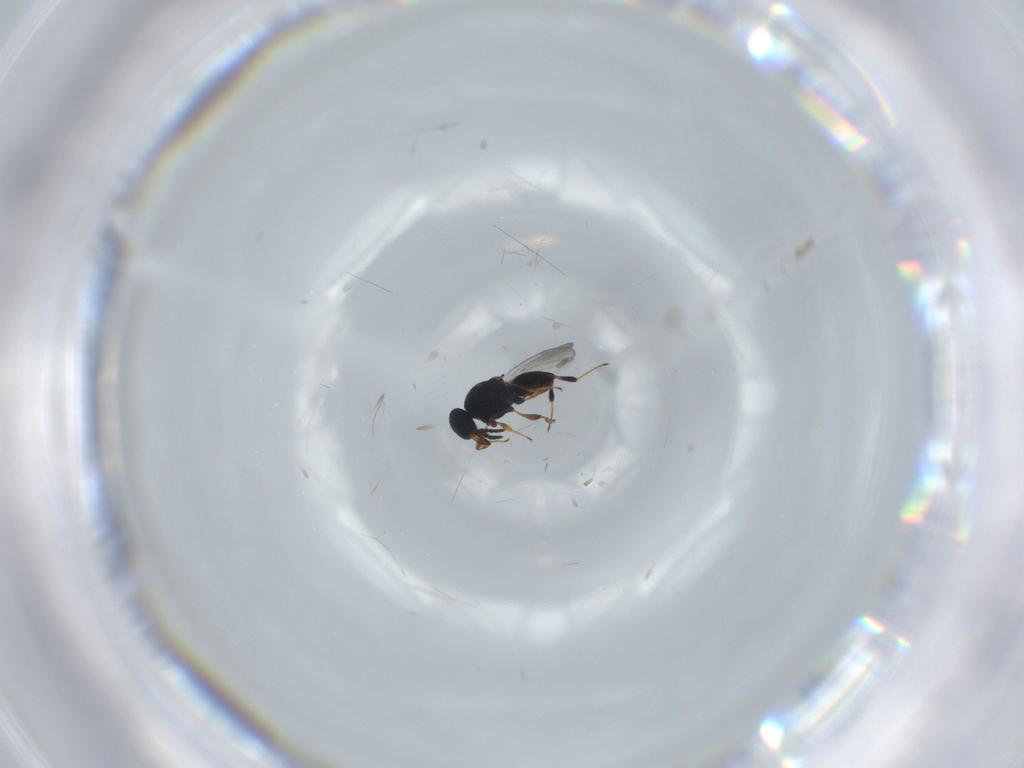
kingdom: Animalia
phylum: Arthropoda
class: Insecta
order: Hymenoptera
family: Platygastridae
